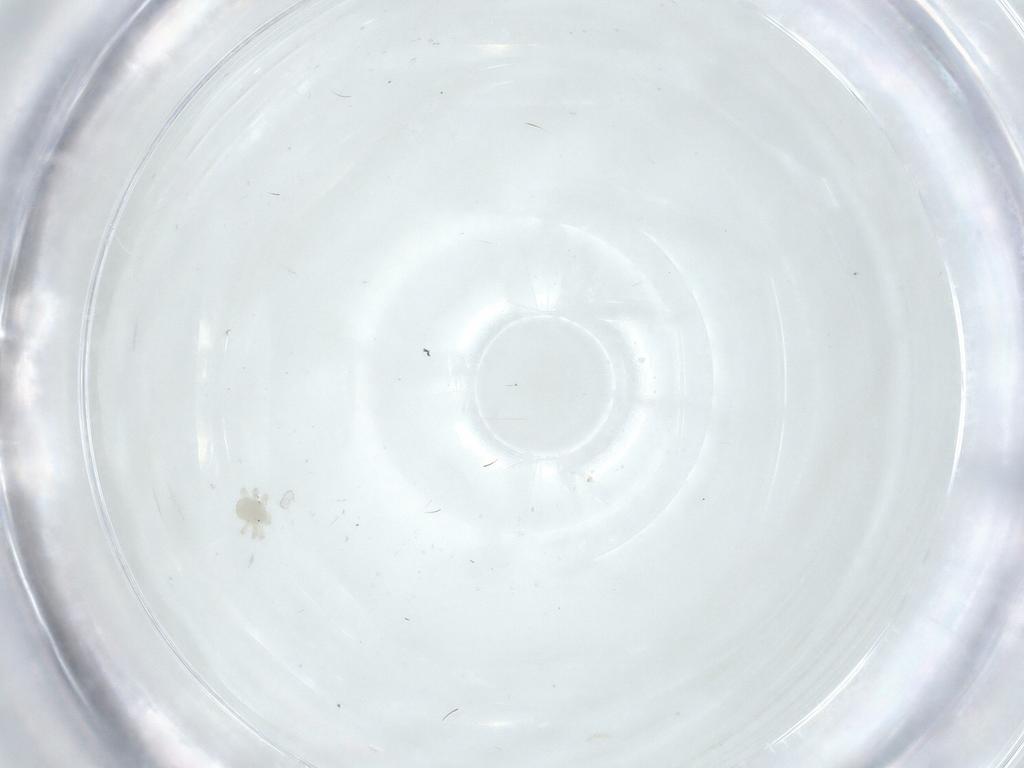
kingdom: Animalia
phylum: Arthropoda
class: Arachnida
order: Trombidiformes
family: Anystidae
